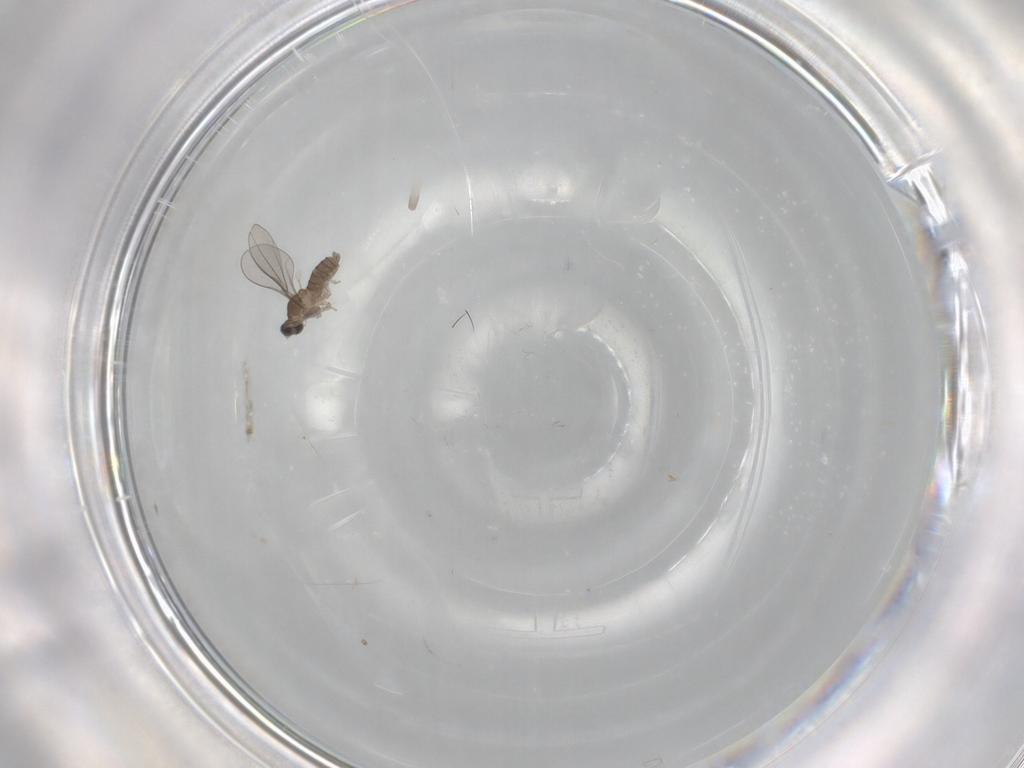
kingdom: Animalia
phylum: Arthropoda
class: Insecta
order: Diptera
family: Cecidomyiidae
